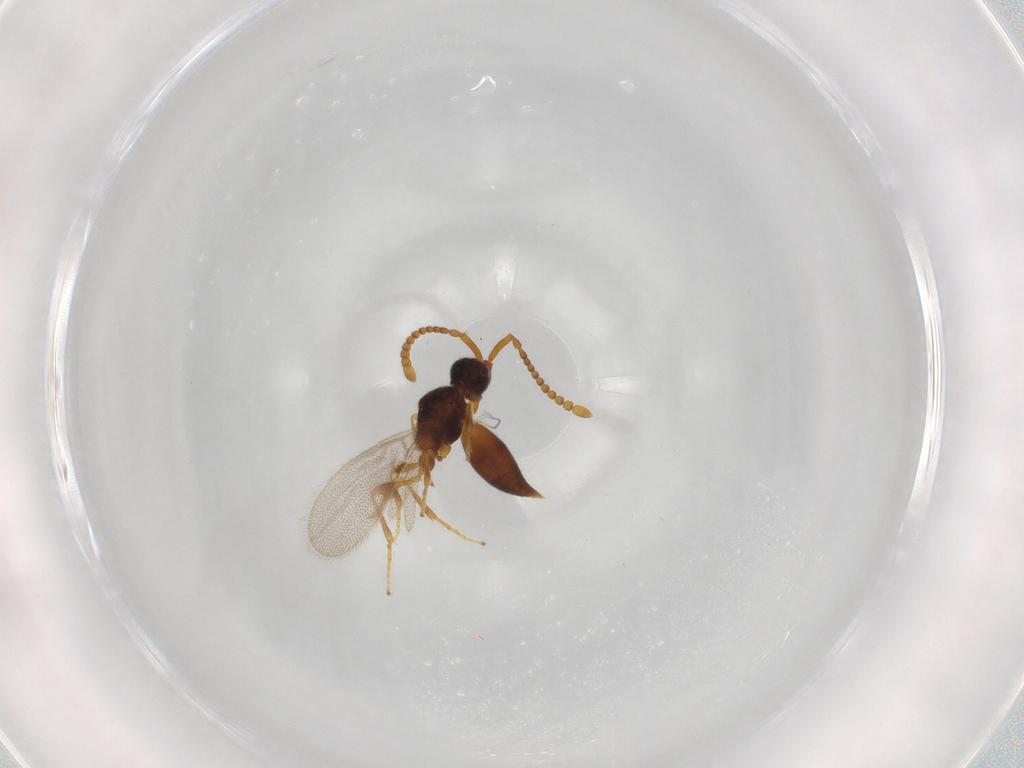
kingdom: Animalia
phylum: Arthropoda
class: Insecta
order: Hymenoptera
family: Diapriidae
